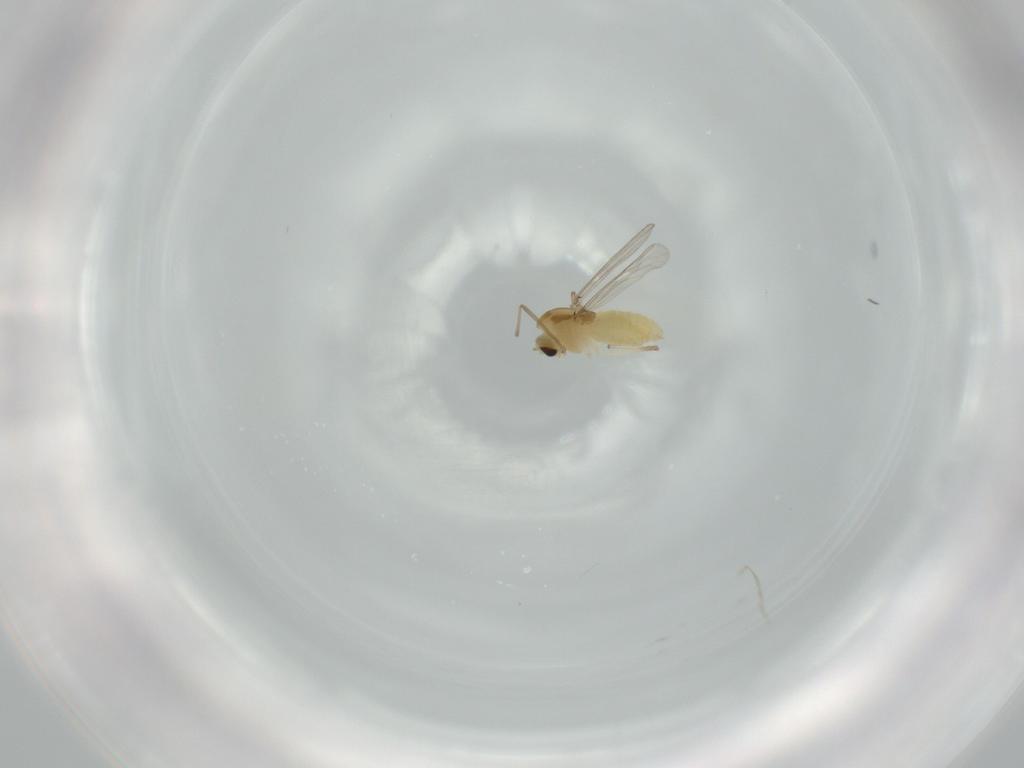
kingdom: Animalia
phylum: Arthropoda
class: Insecta
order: Diptera
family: Chironomidae
